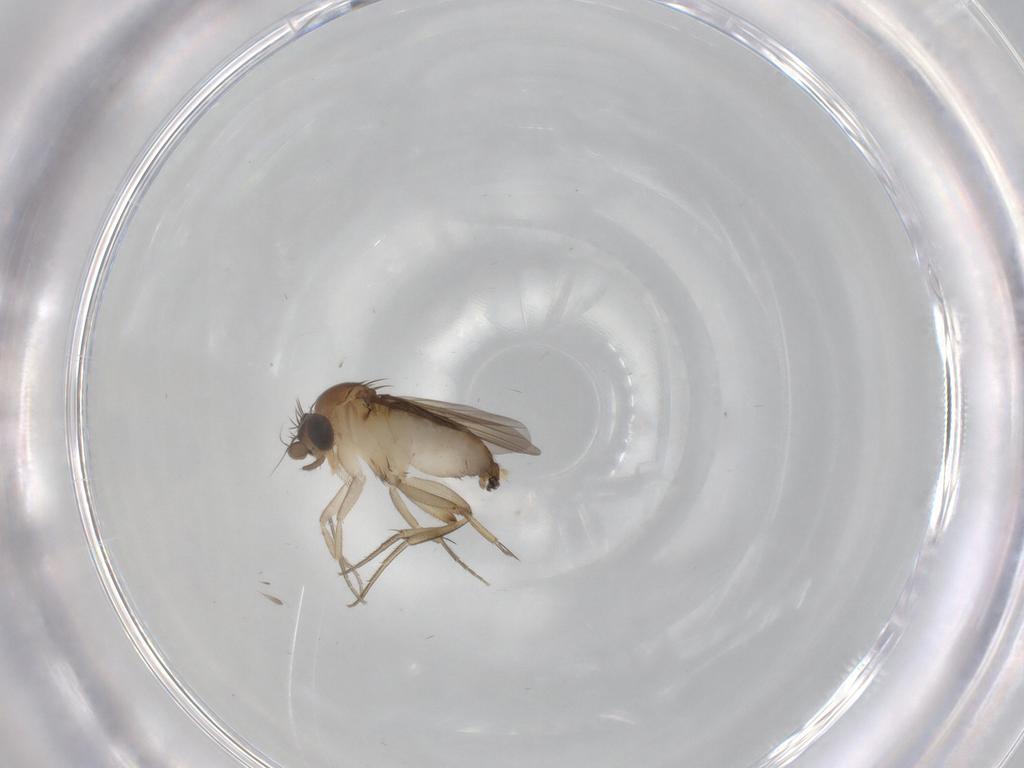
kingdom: Animalia
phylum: Arthropoda
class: Insecta
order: Diptera
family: Phoridae
